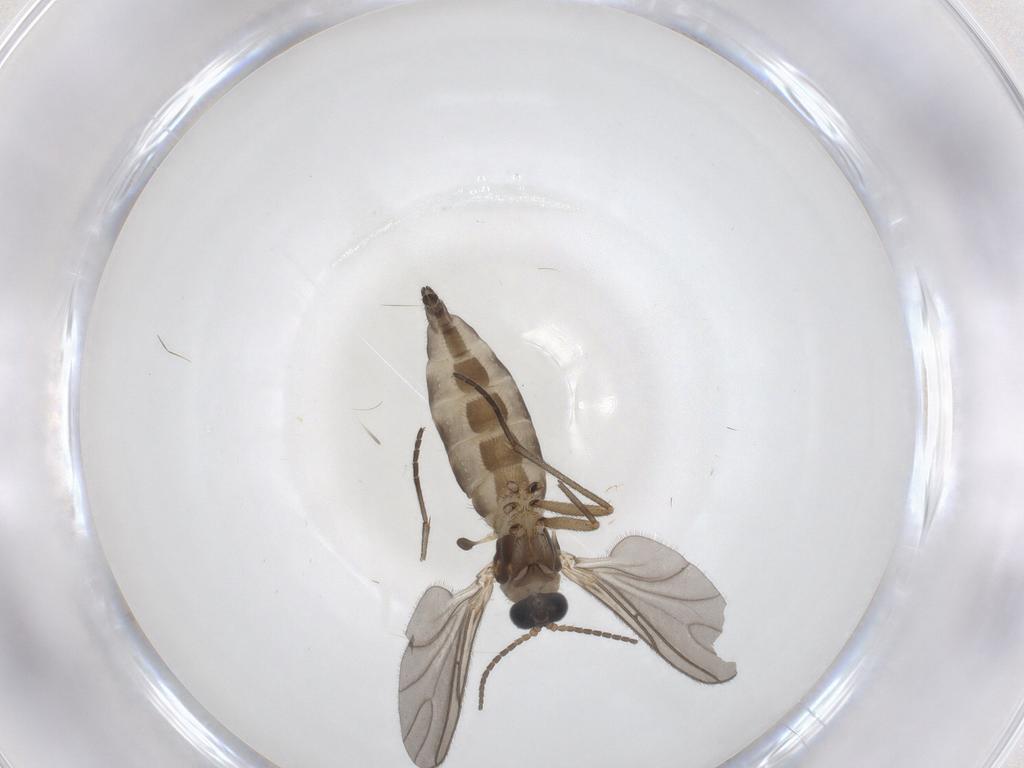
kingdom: Animalia
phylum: Arthropoda
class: Insecta
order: Diptera
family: Sciaridae
